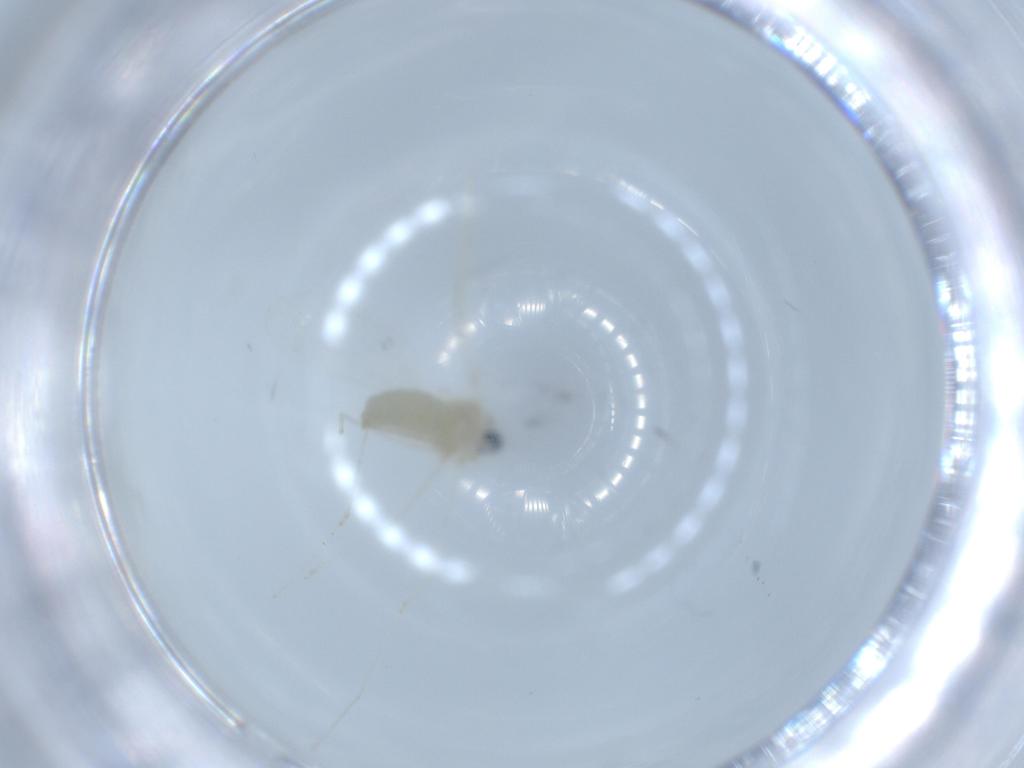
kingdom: Animalia
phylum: Arthropoda
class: Insecta
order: Diptera
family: Cecidomyiidae
